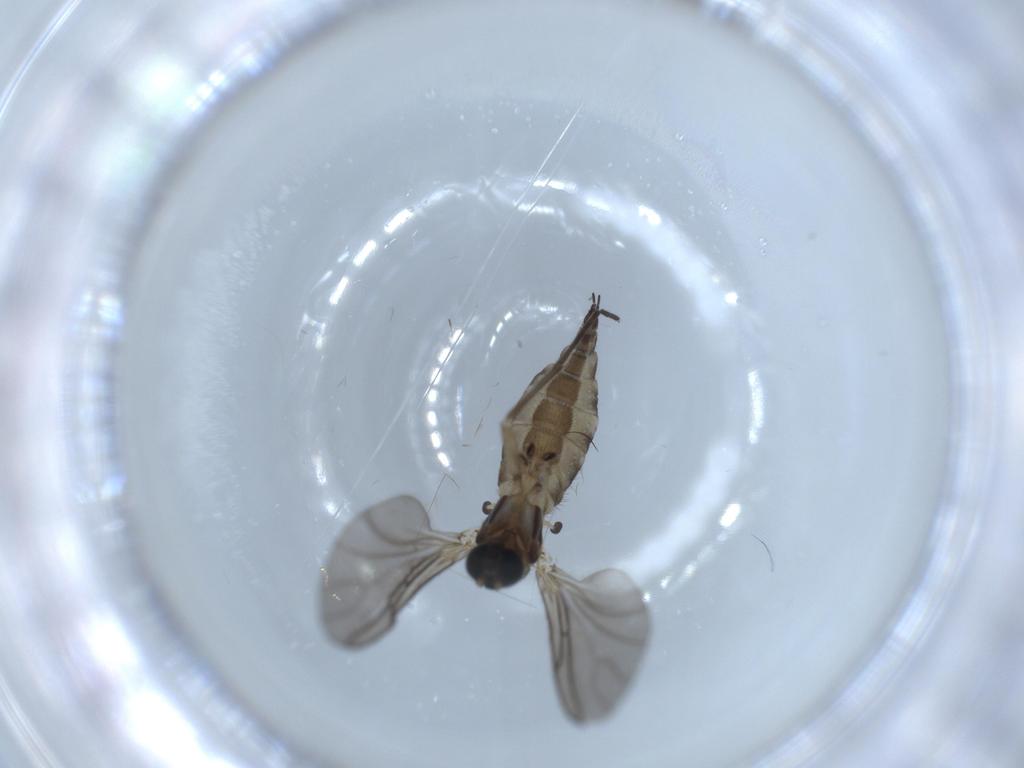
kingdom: Animalia
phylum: Arthropoda
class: Insecta
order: Diptera
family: Sciaridae
